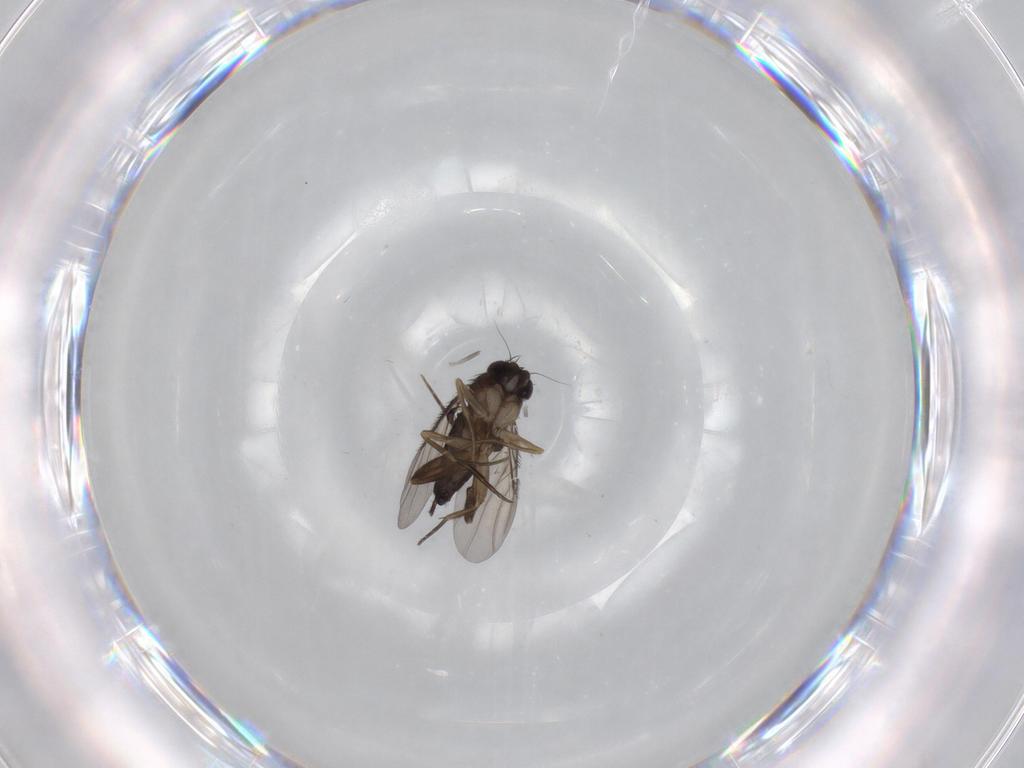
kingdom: Animalia
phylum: Arthropoda
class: Insecta
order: Diptera
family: Phoridae
